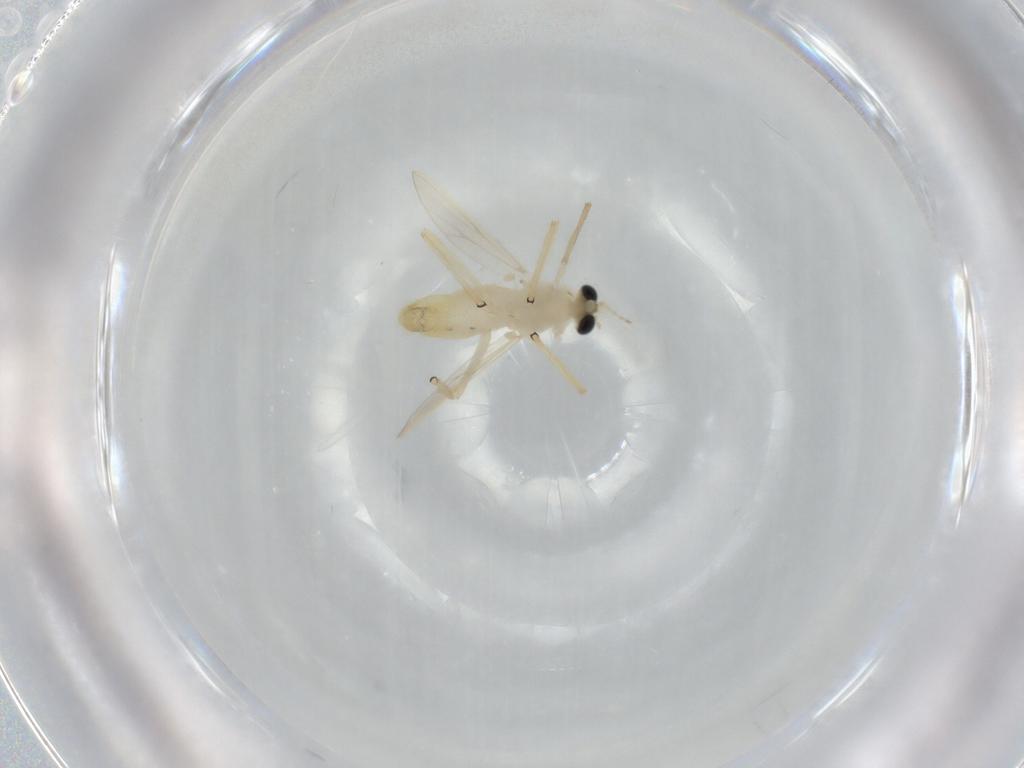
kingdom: Animalia
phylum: Arthropoda
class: Insecta
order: Diptera
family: Chironomidae
